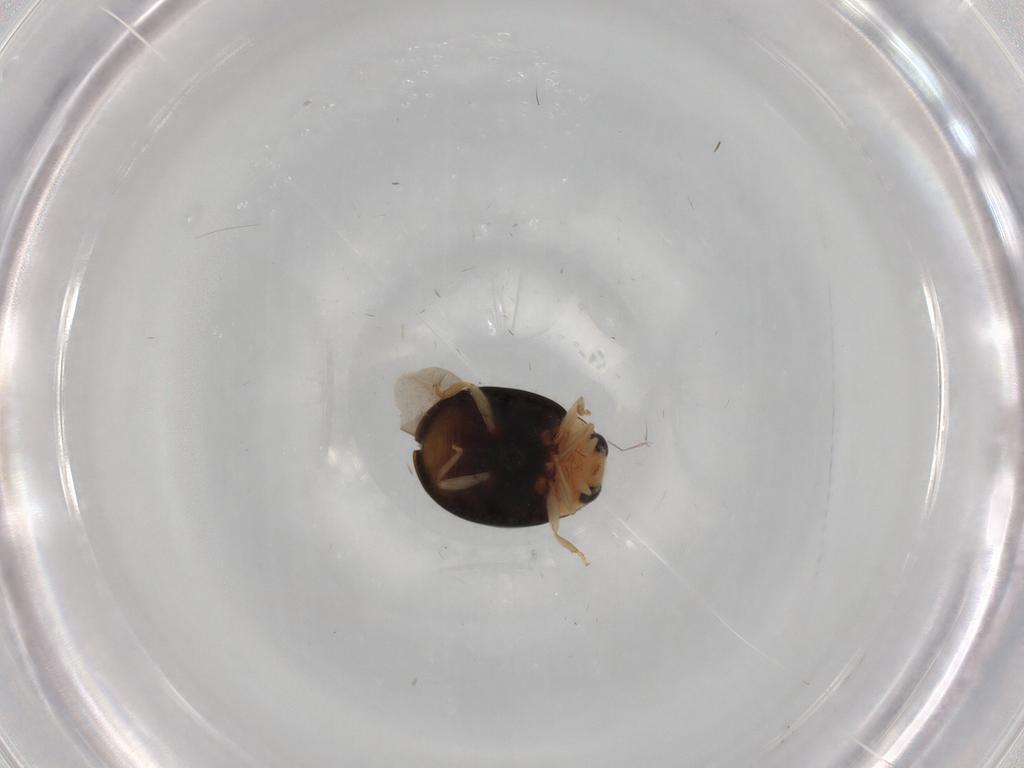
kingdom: Animalia
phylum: Arthropoda
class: Insecta
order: Coleoptera
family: Coccinellidae
